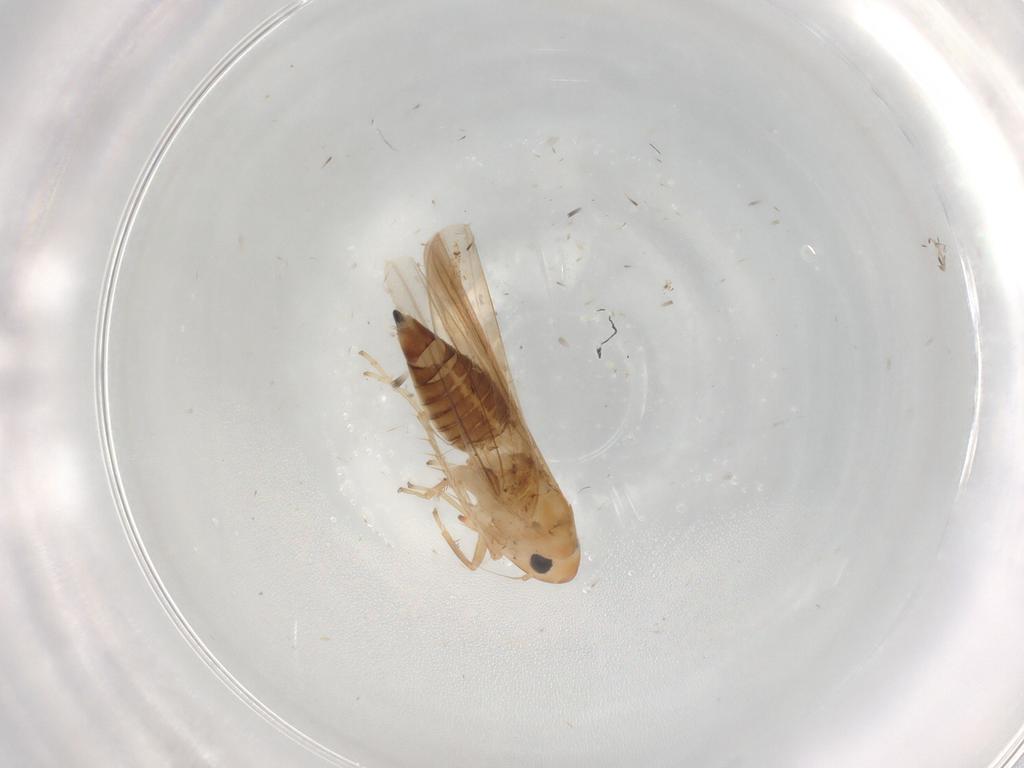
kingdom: Animalia
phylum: Arthropoda
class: Insecta
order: Hemiptera
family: Cicadellidae
